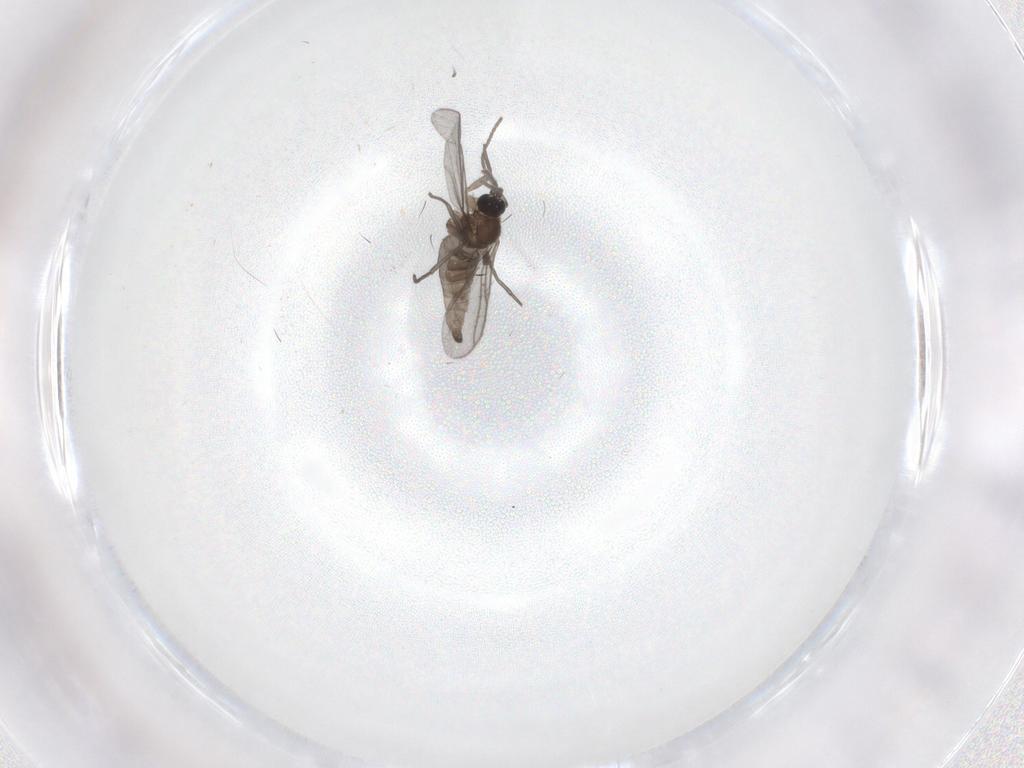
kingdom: Animalia
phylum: Arthropoda
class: Insecta
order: Diptera
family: Sciaridae
